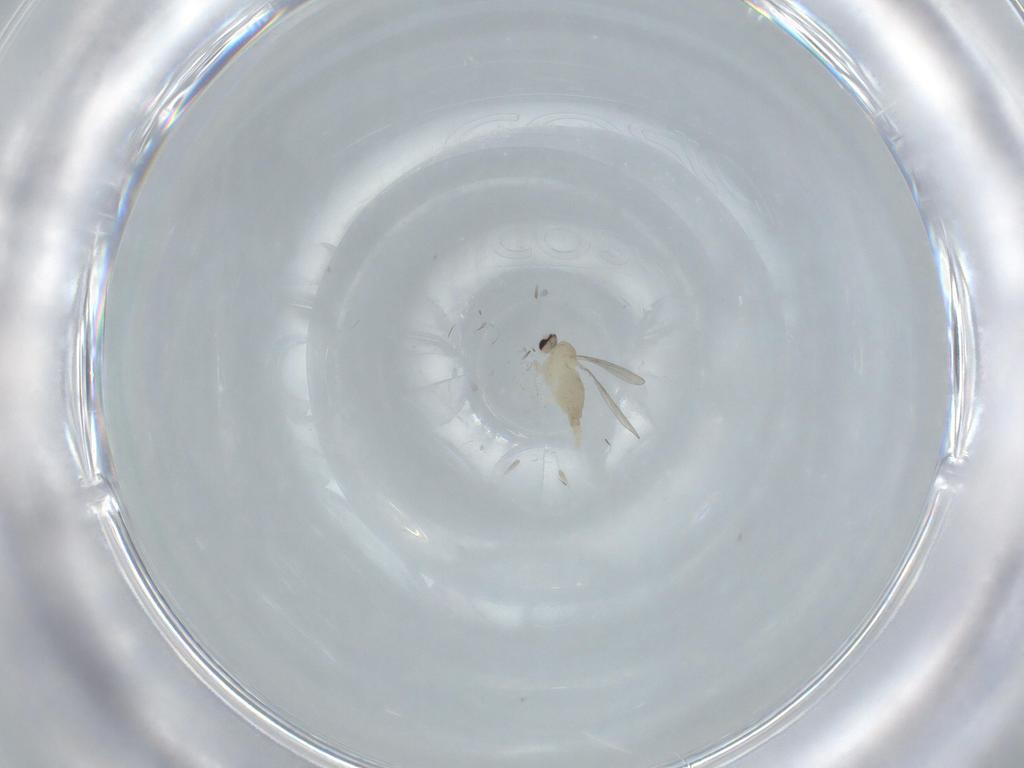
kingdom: Animalia
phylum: Arthropoda
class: Insecta
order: Diptera
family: Cecidomyiidae
